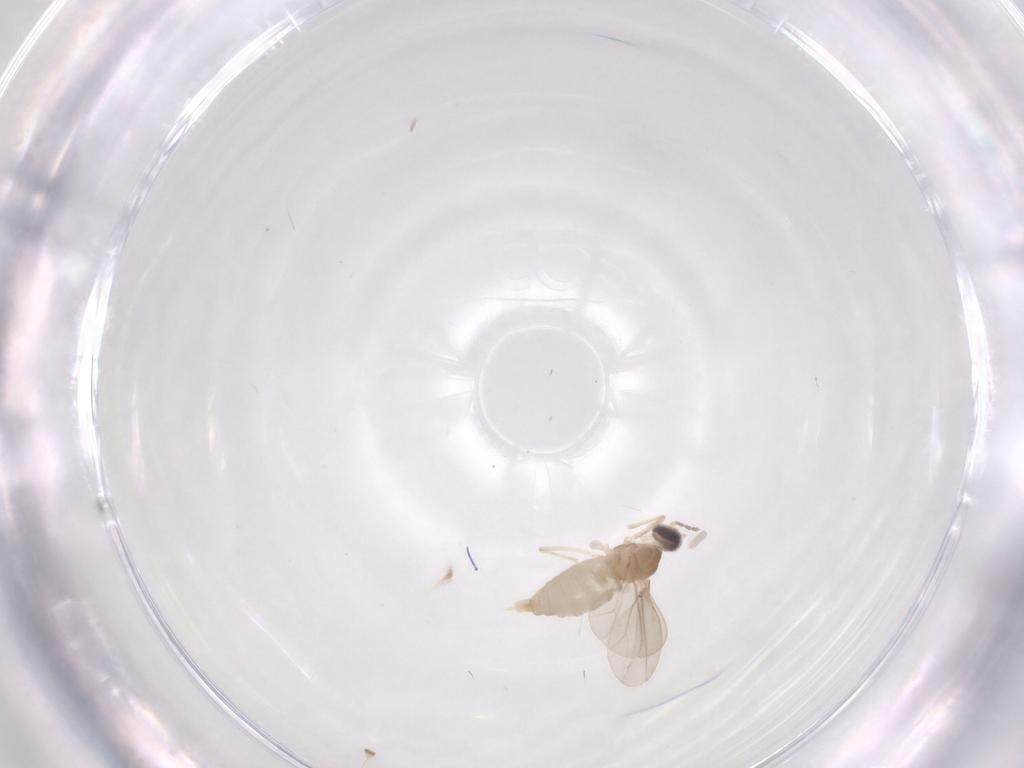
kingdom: Animalia
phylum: Arthropoda
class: Insecta
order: Diptera
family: Cecidomyiidae
